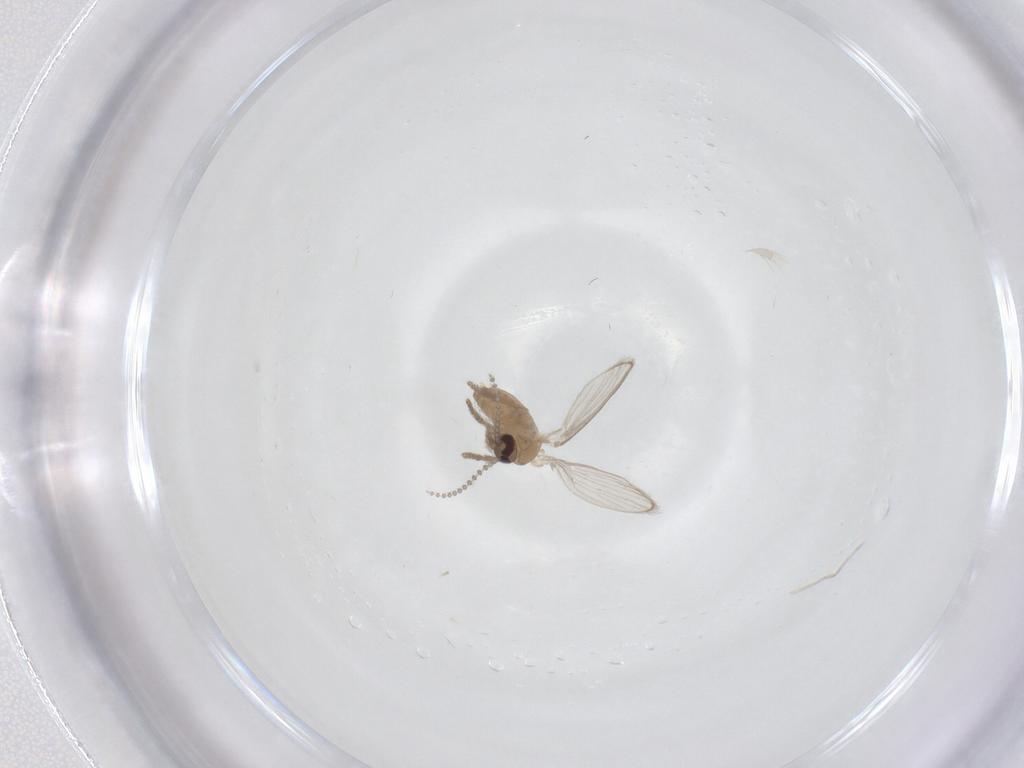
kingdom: Animalia
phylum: Arthropoda
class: Insecta
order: Diptera
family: Psychodidae
